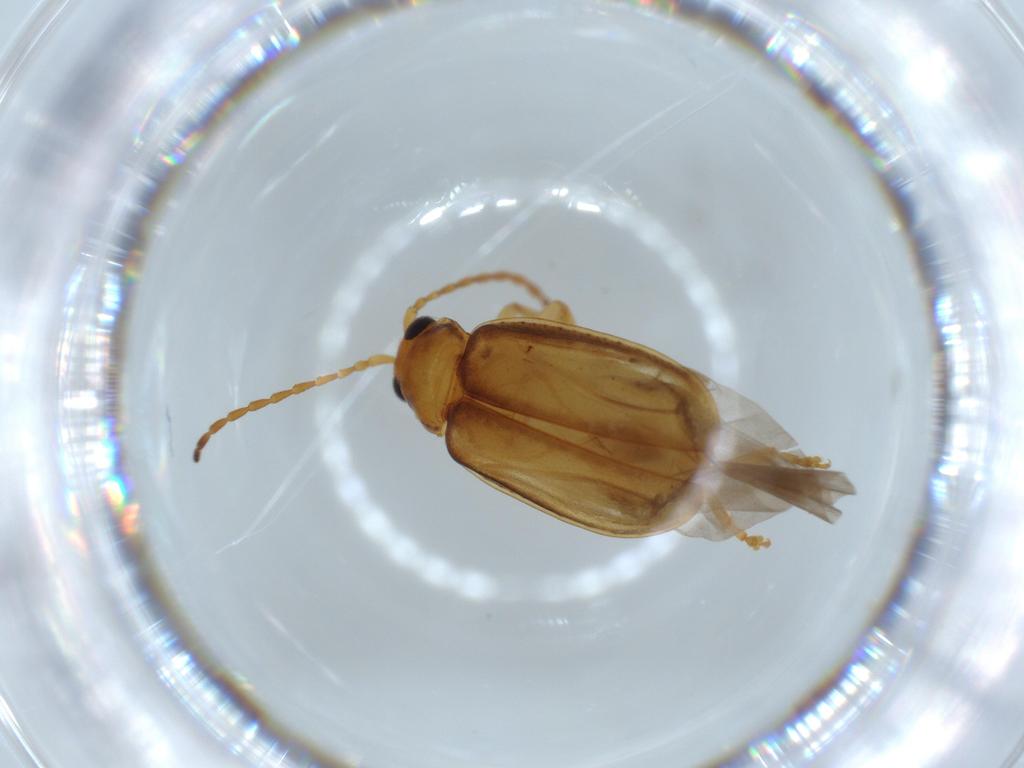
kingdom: Animalia
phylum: Arthropoda
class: Insecta
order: Coleoptera
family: Chrysomelidae
